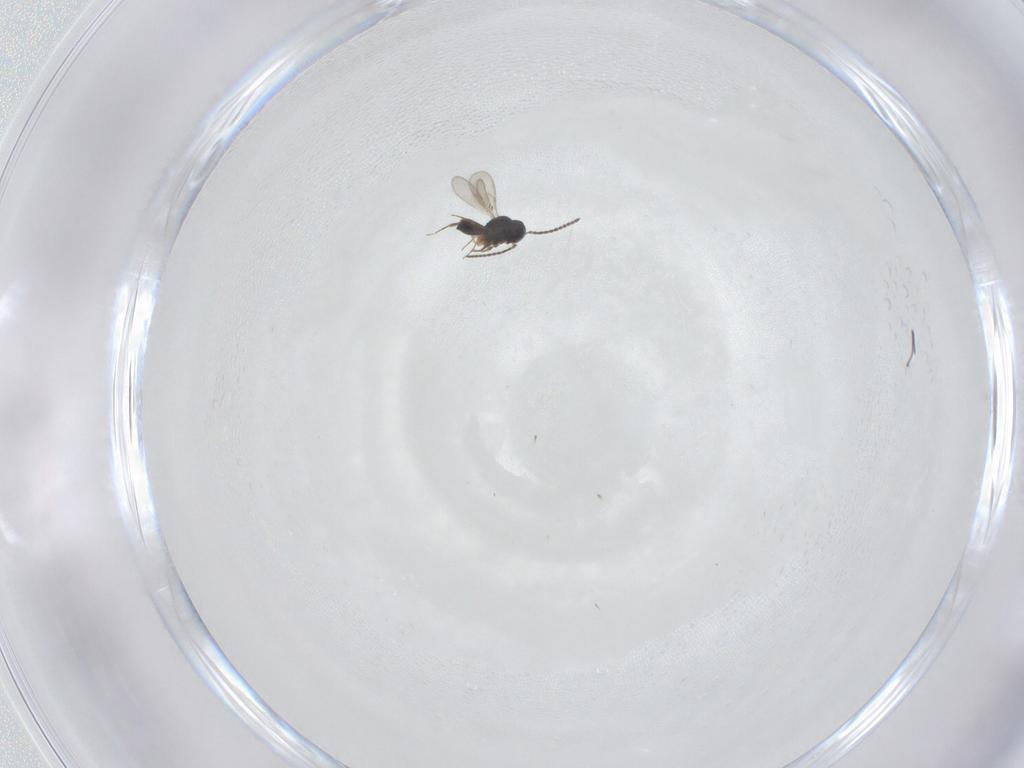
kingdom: Animalia
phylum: Arthropoda
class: Insecta
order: Hymenoptera
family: Scelionidae
